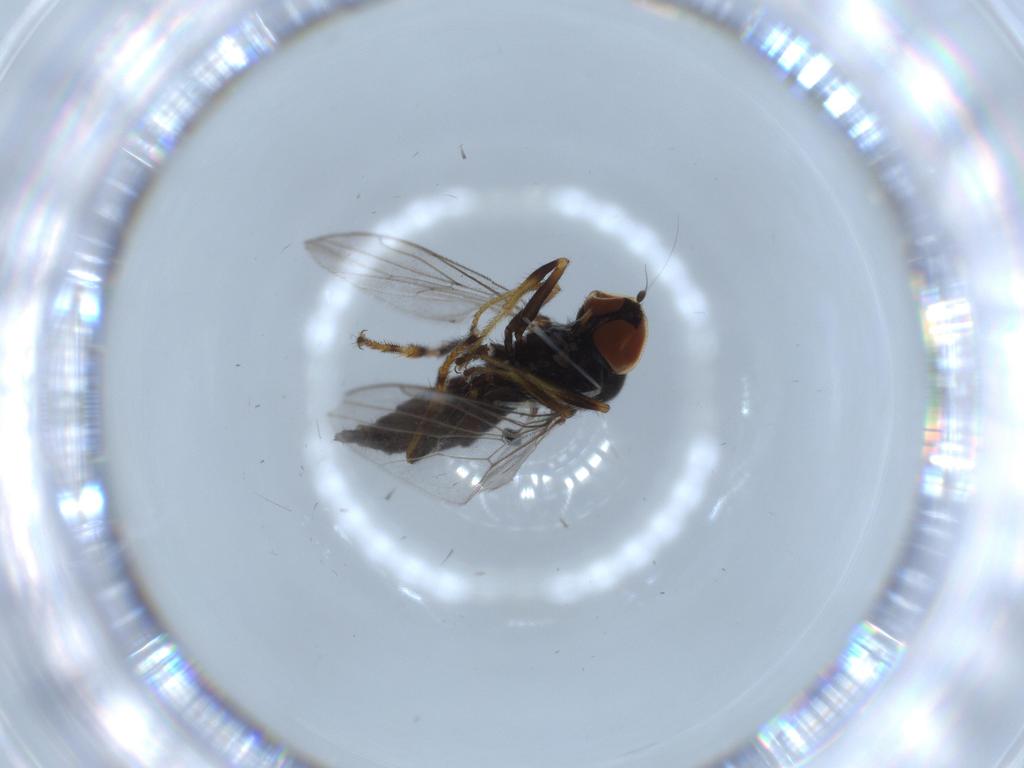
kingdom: Animalia
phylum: Arthropoda
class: Insecta
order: Diptera
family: Hybotidae
